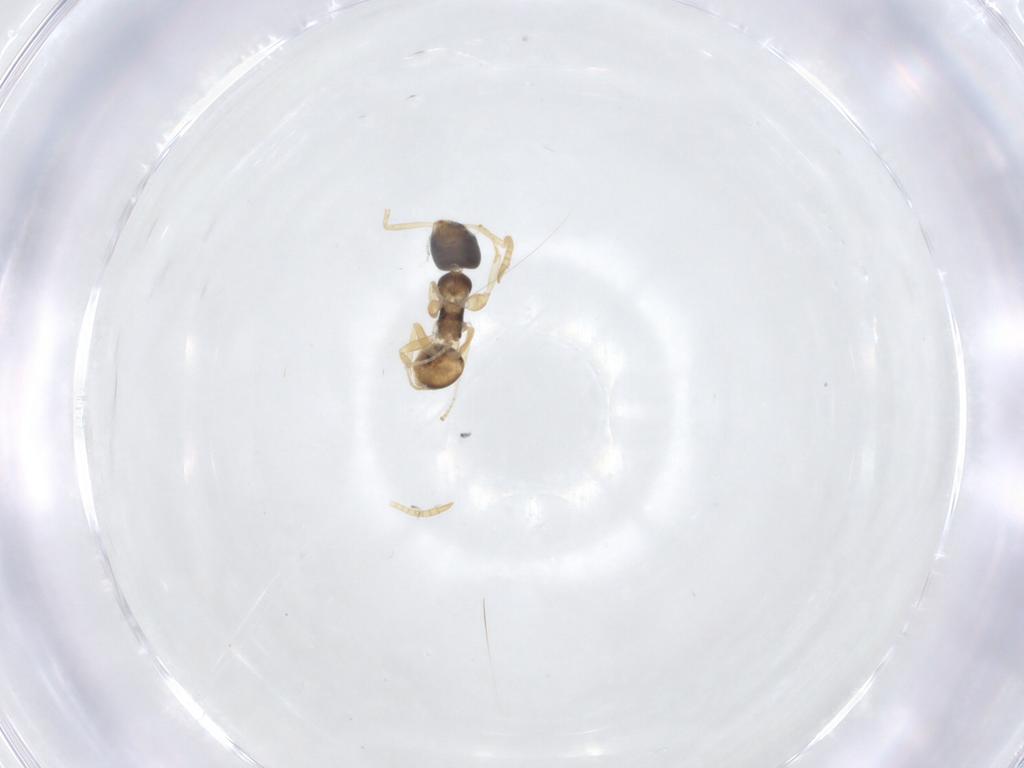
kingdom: Animalia
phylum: Arthropoda
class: Insecta
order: Hymenoptera
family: Formicidae
